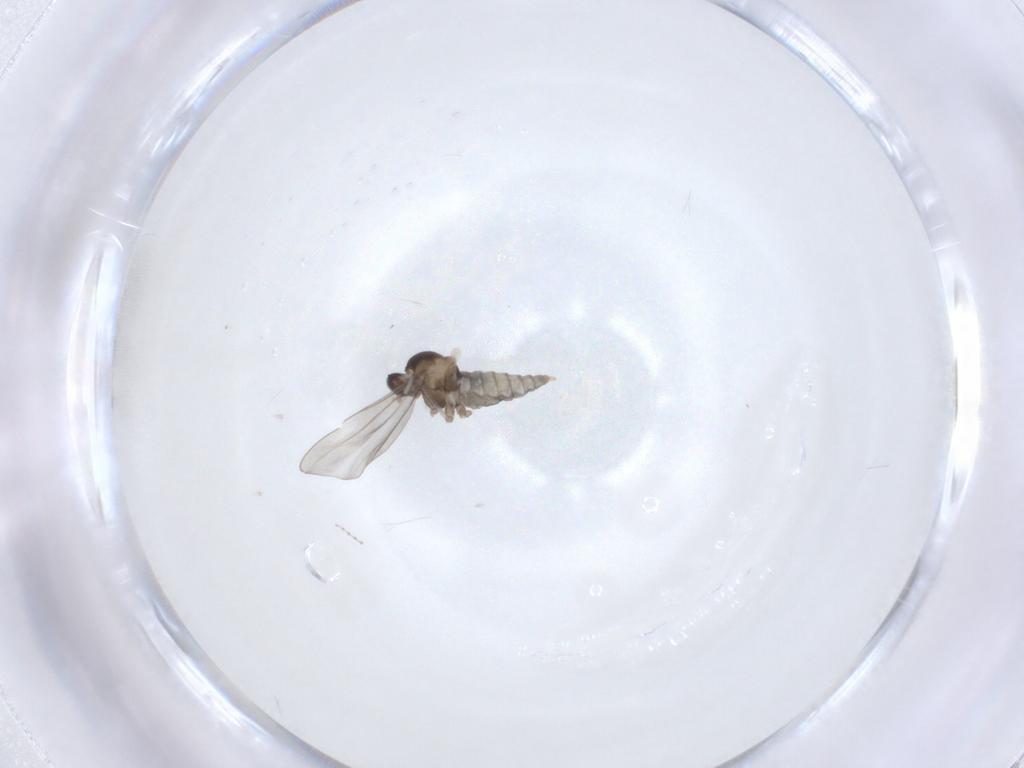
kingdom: Animalia
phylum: Arthropoda
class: Insecta
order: Diptera
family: Cecidomyiidae
